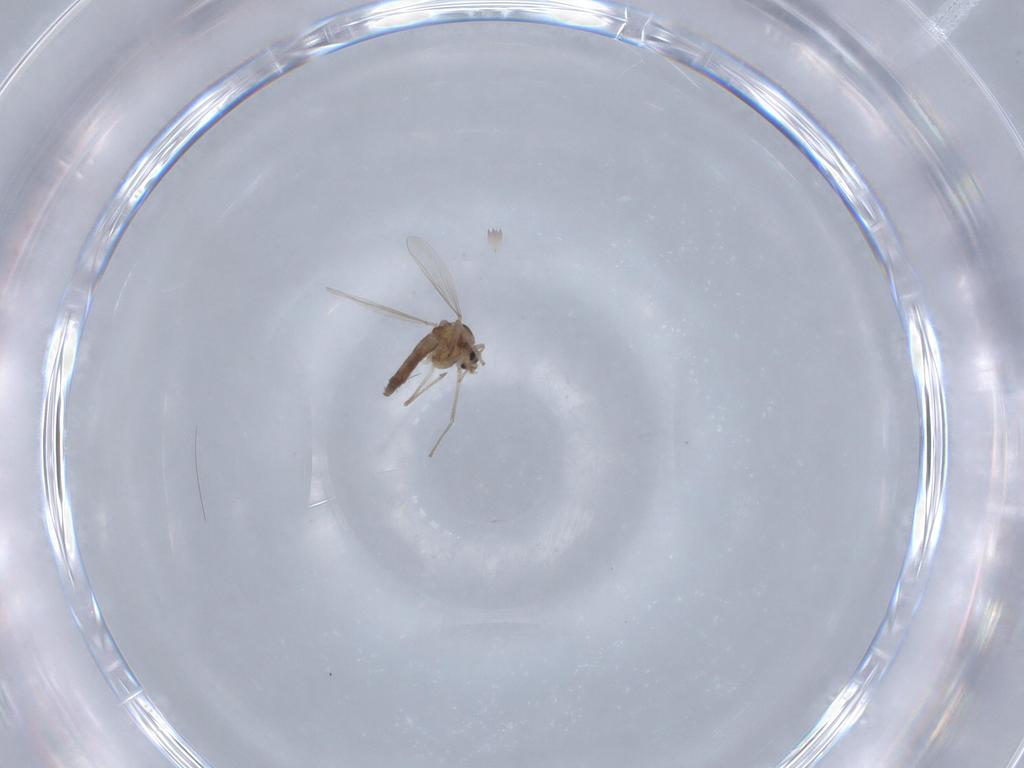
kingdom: Animalia
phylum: Arthropoda
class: Insecta
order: Diptera
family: Chironomidae
